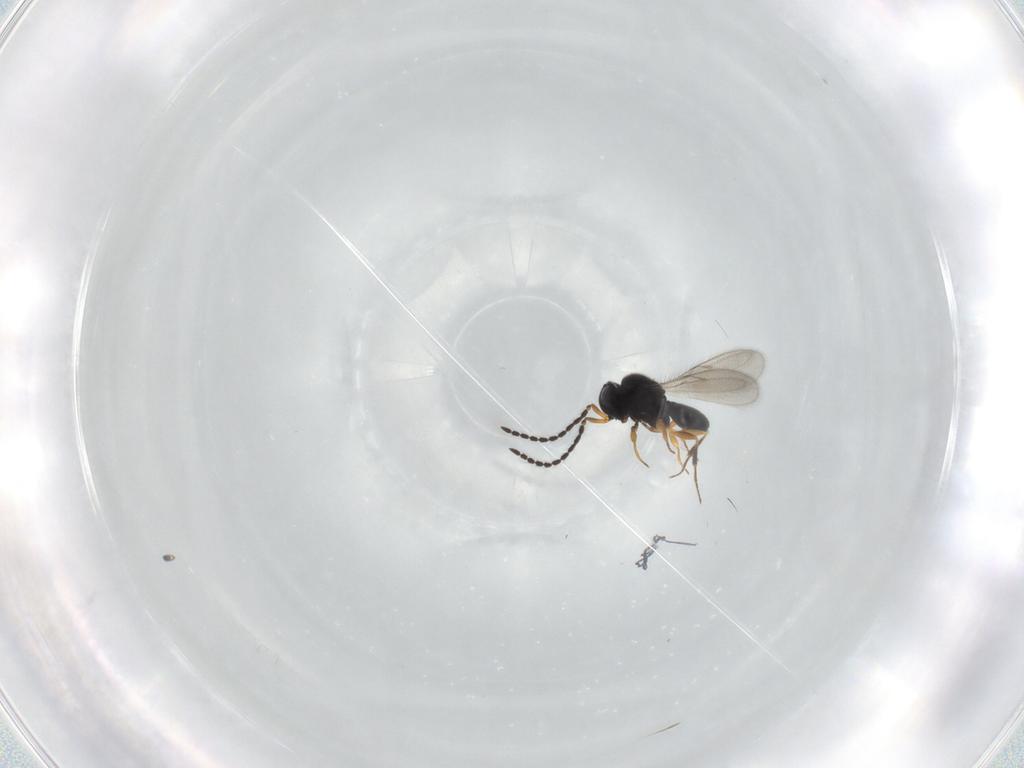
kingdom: Animalia
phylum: Arthropoda
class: Insecta
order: Hymenoptera
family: Scelionidae
